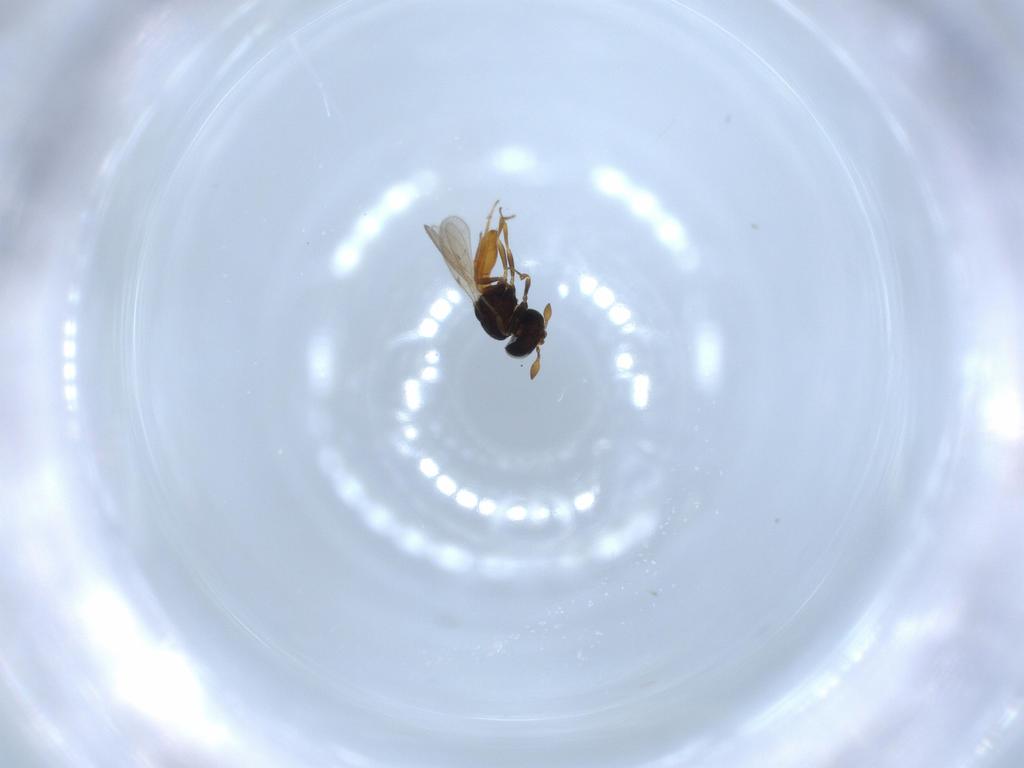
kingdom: Animalia
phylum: Arthropoda
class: Insecta
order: Hymenoptera
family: Scelionidae
